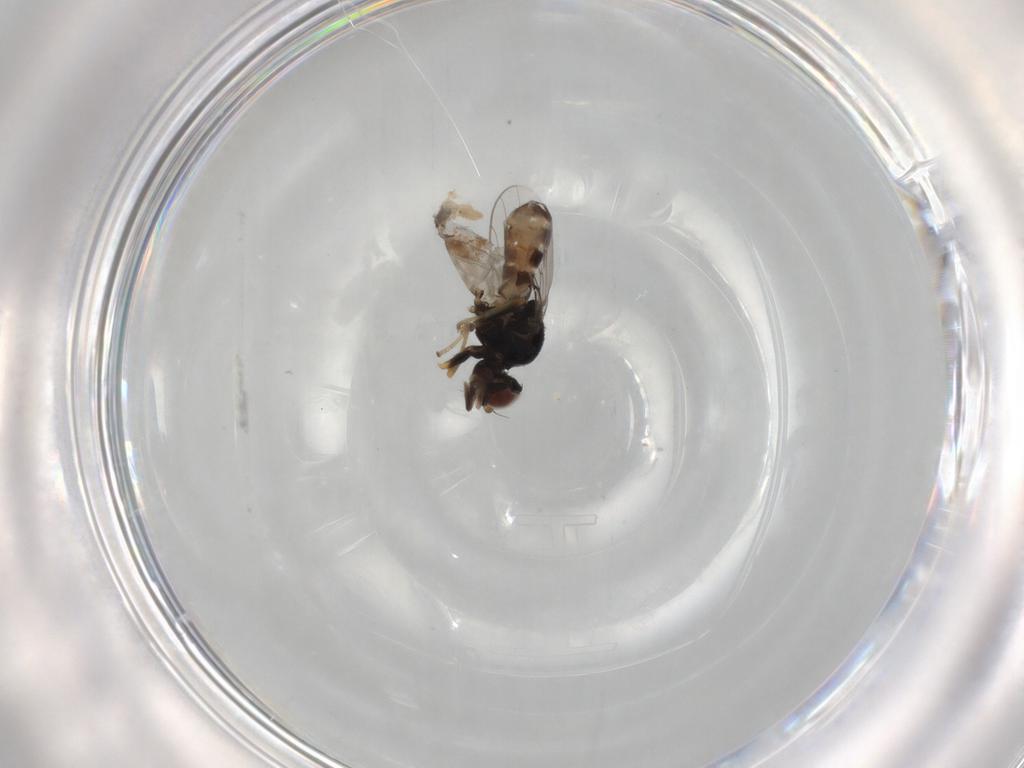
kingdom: Animalia
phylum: Arthropoda
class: Insecta
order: Diptera
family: Chloropidae
